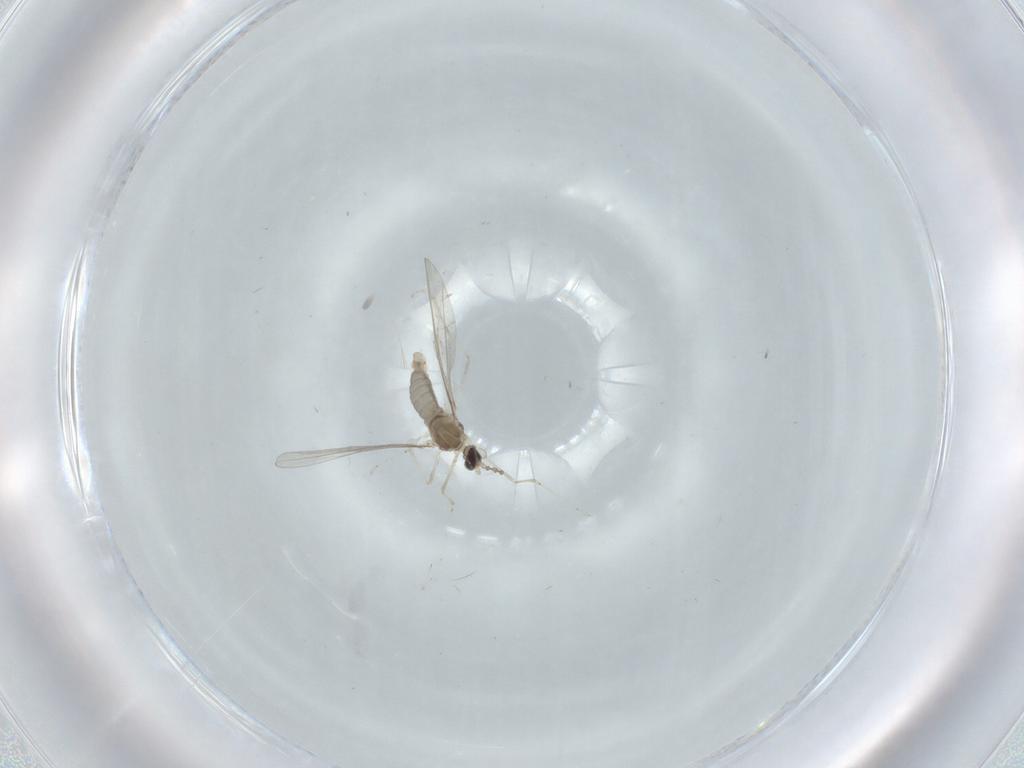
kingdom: Animalia
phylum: Arthropoda
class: Insecta
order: Diptera
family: Cecidomyiidae
